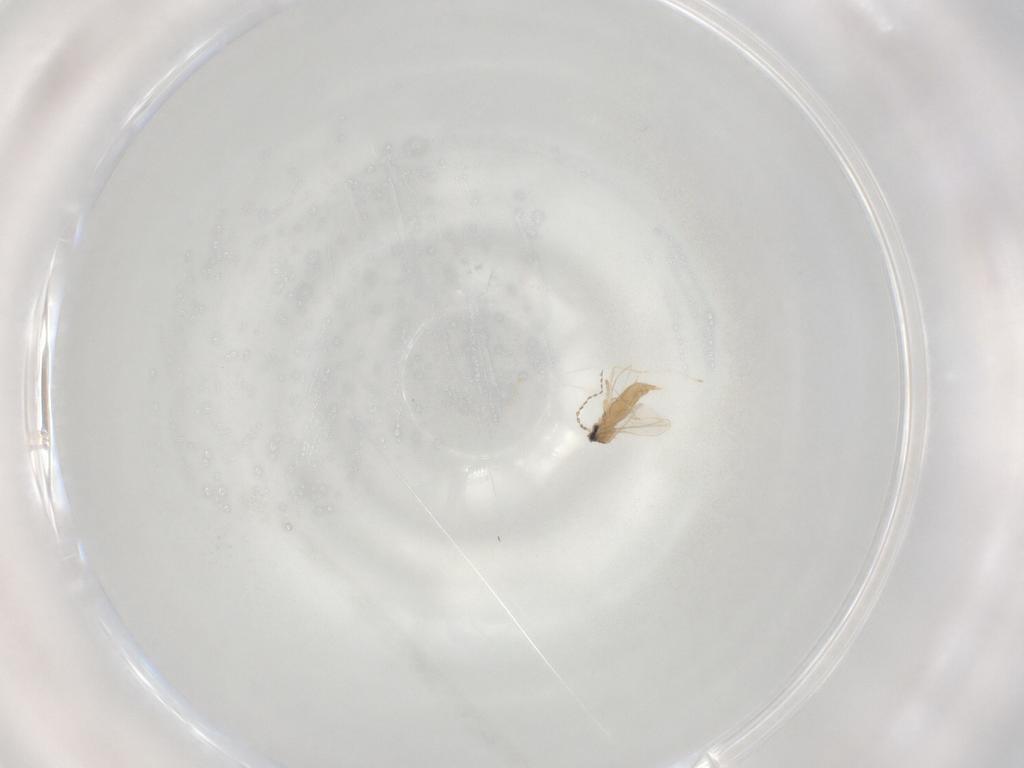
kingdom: Animalia
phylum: Arthropoda
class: Insecta
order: Diptera
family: Cecidomyiidae
